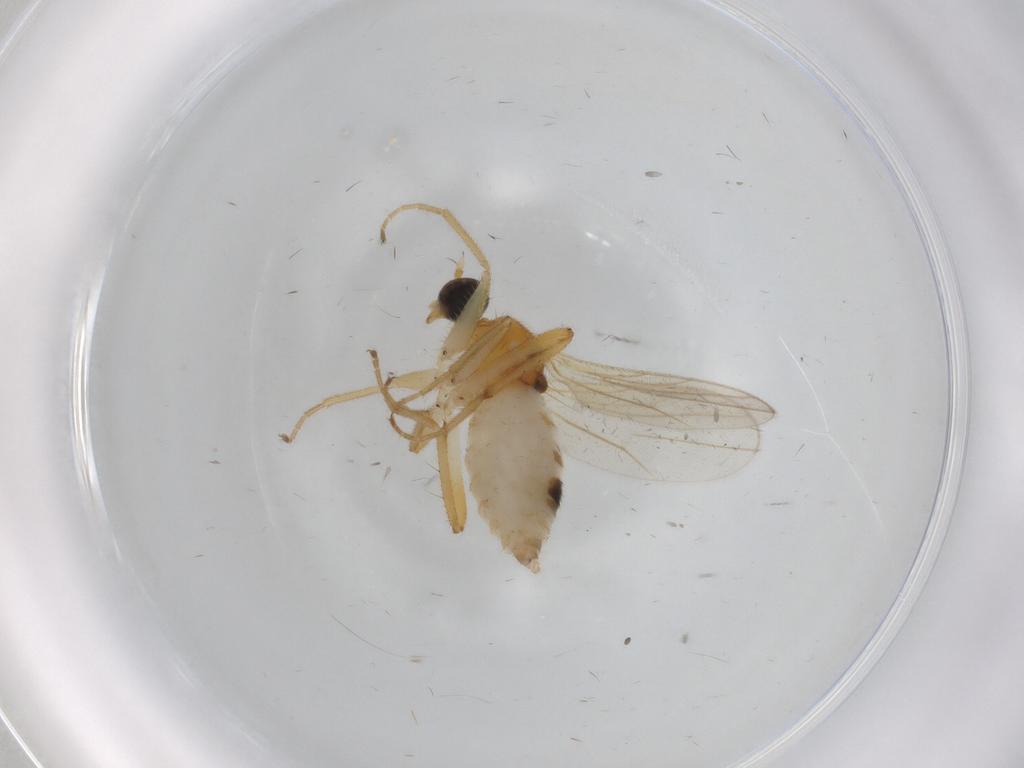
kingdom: Animalia
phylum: Arthropoda
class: Insecta
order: Diptera
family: Hybotidae
